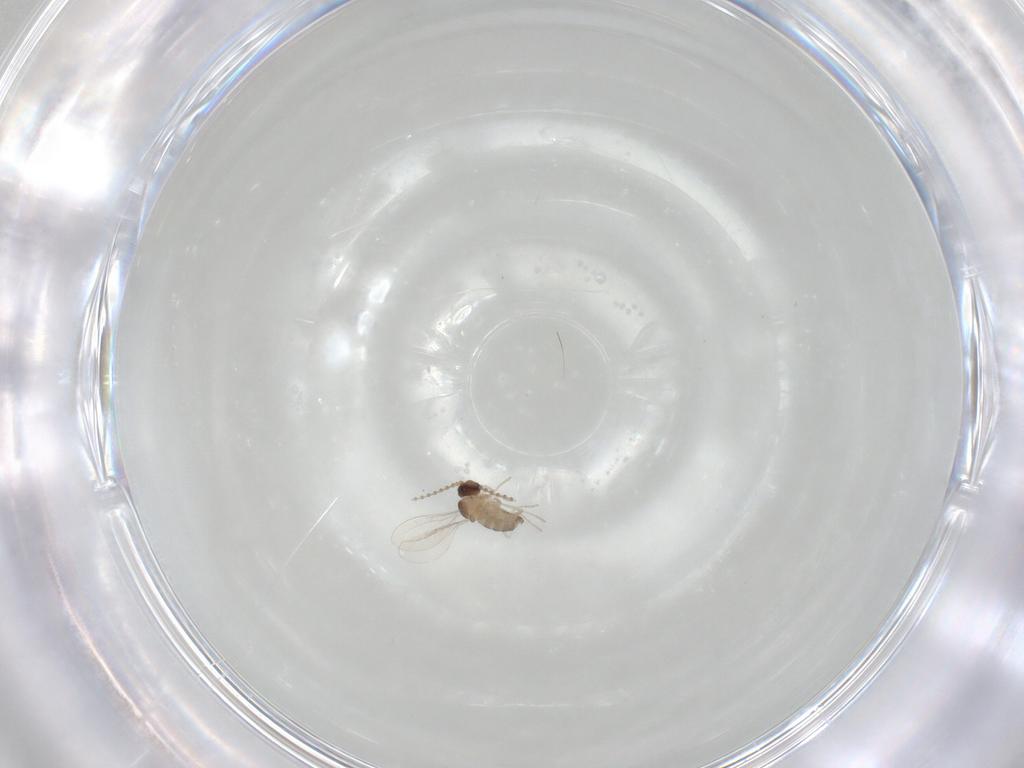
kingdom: Animalia
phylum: Arthropoda
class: Insecta
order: Diptera
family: Cecidomyiidae
